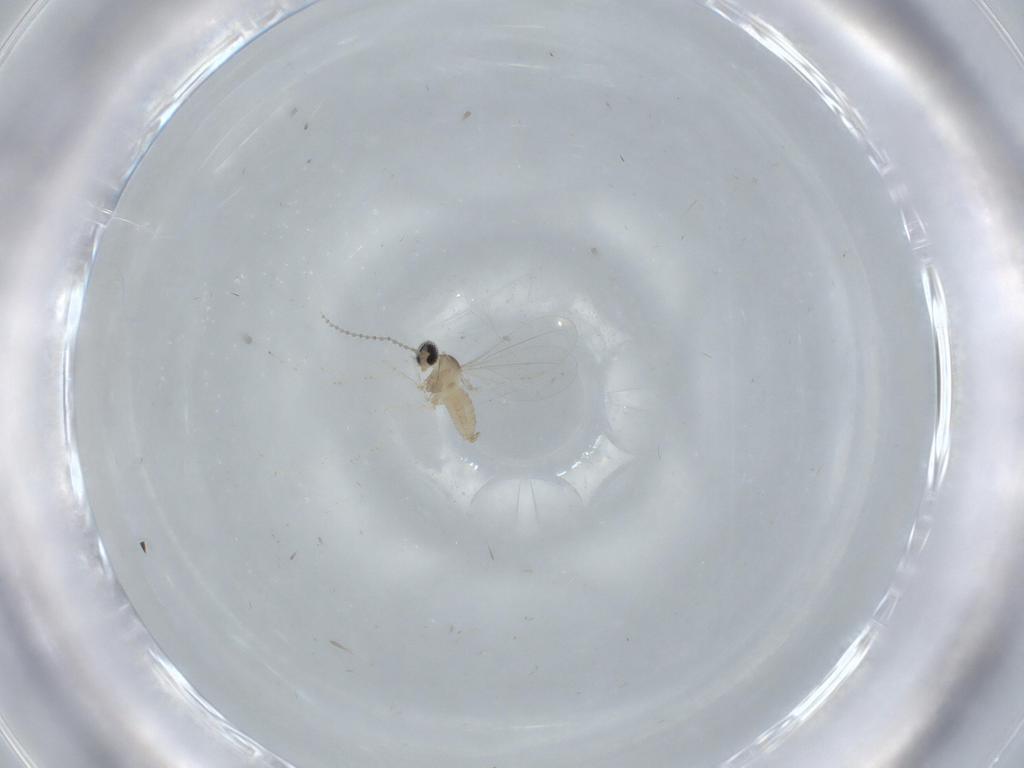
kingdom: Animalia
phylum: Arthropoda
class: Insecta
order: Diptera
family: Cecidomyiidae
